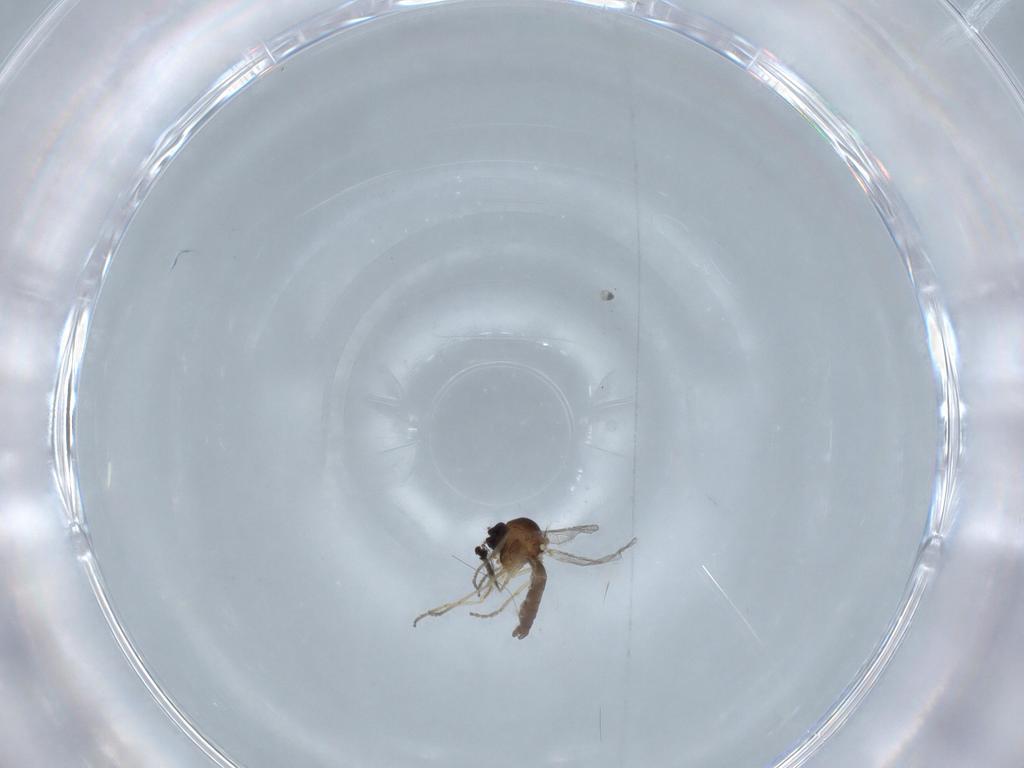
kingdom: Animalia
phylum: Arthropoda
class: Insecta
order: Diptera
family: Ceratopogonidae
